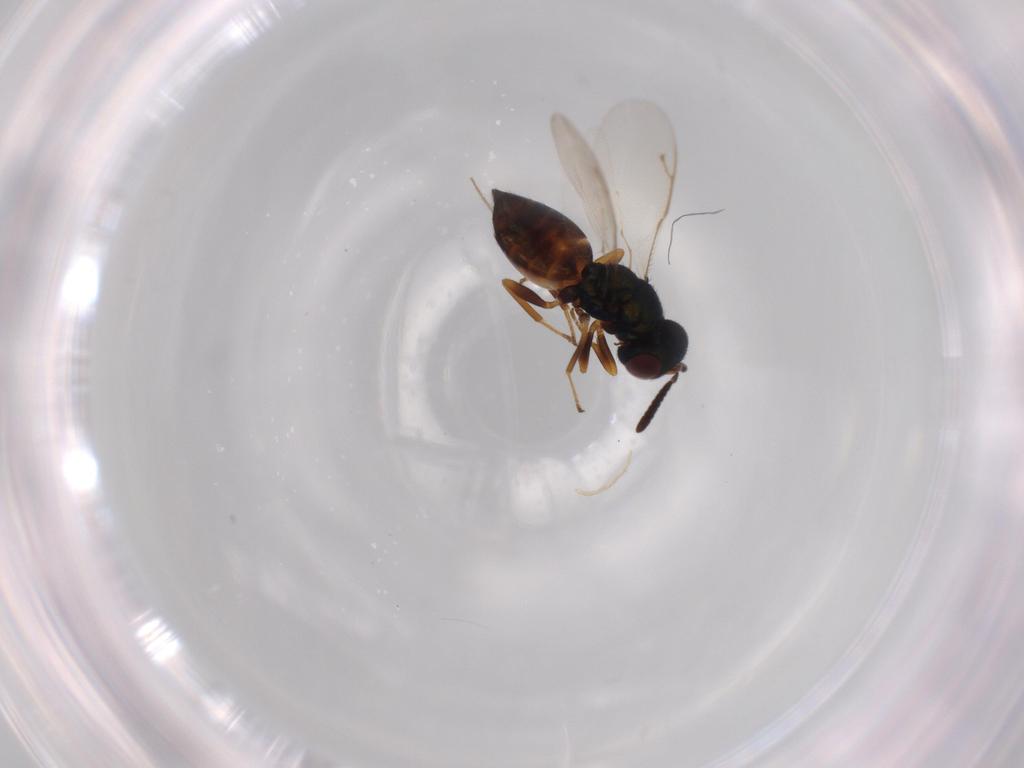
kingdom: Animalia
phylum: Arthropoda
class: Insecta
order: Hymenoptera
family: Pteromalidae
